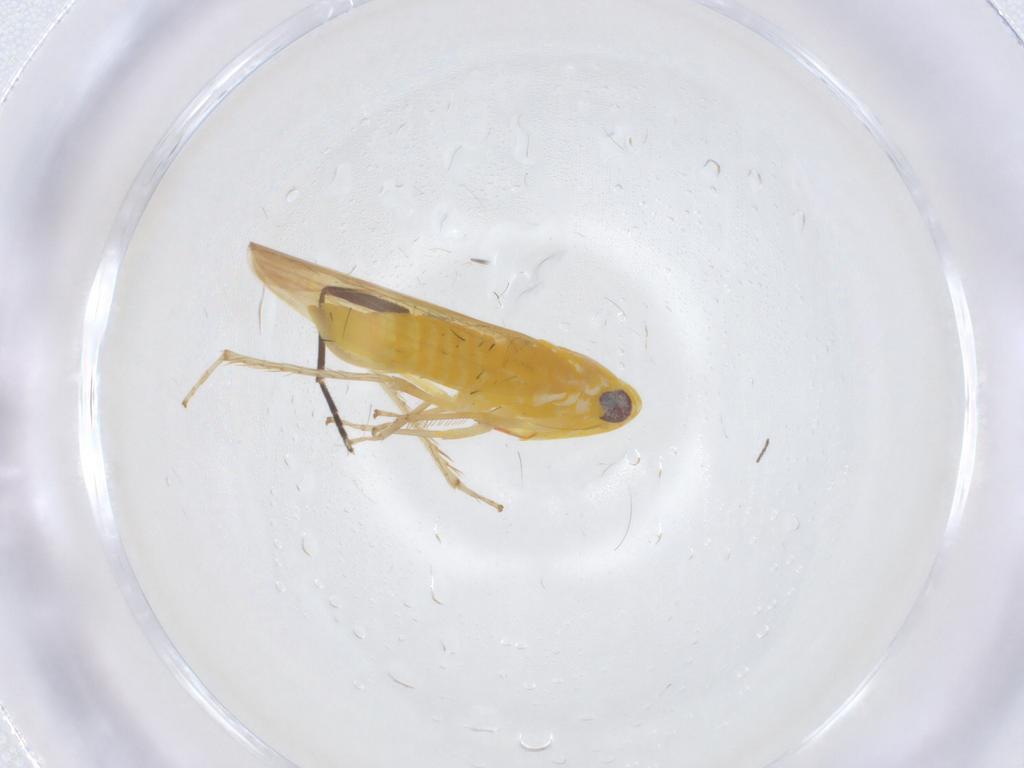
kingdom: Animalia
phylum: Arthropoda
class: Insecta
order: Hemiptera
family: Cicadellidae
